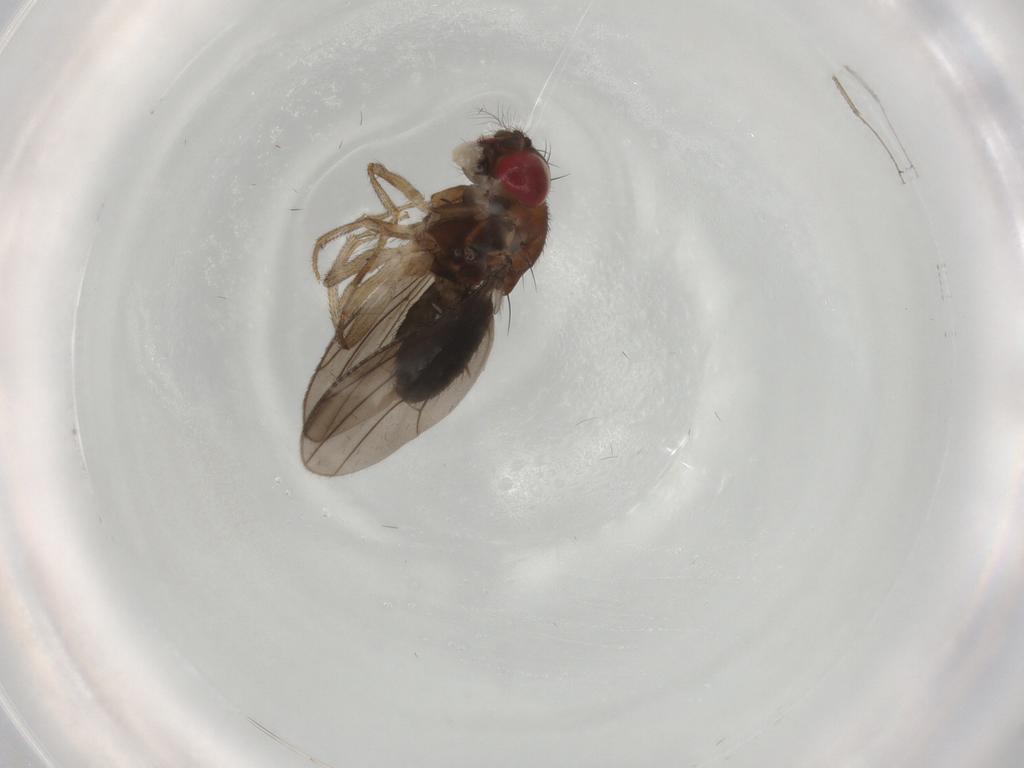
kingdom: Animalia
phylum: Arthropoda
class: Insecta
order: Diptera
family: Drosophilidae
